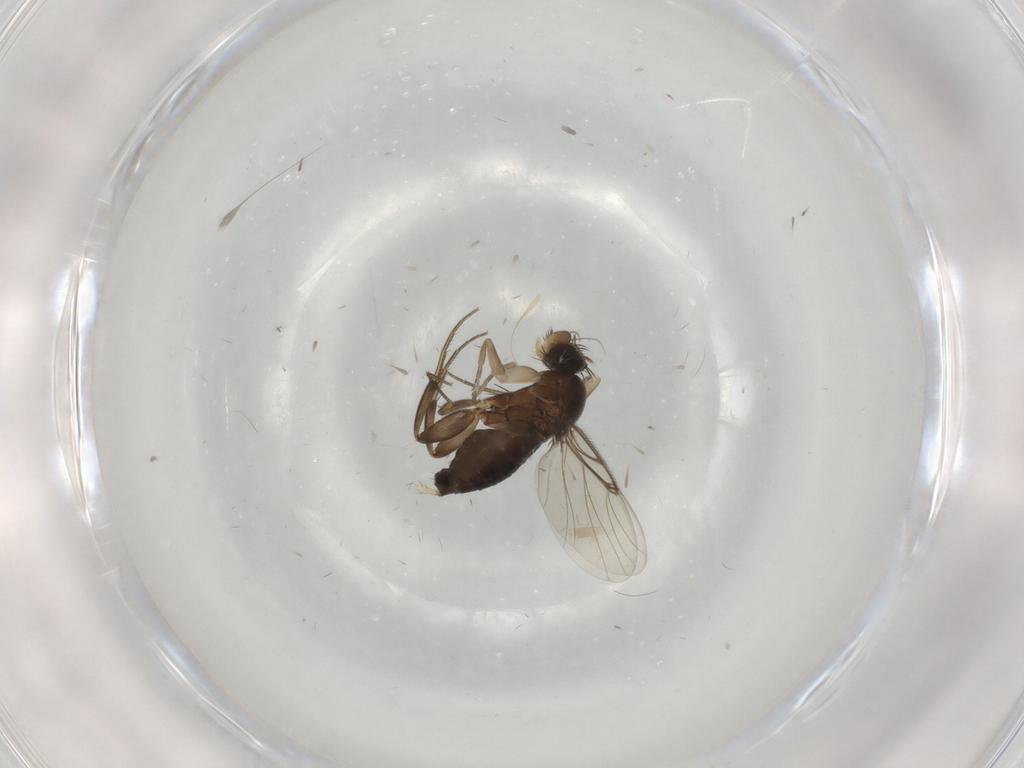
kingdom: Animalia
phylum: Arthropoda
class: Insecta
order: Diptera
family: Phoridae
